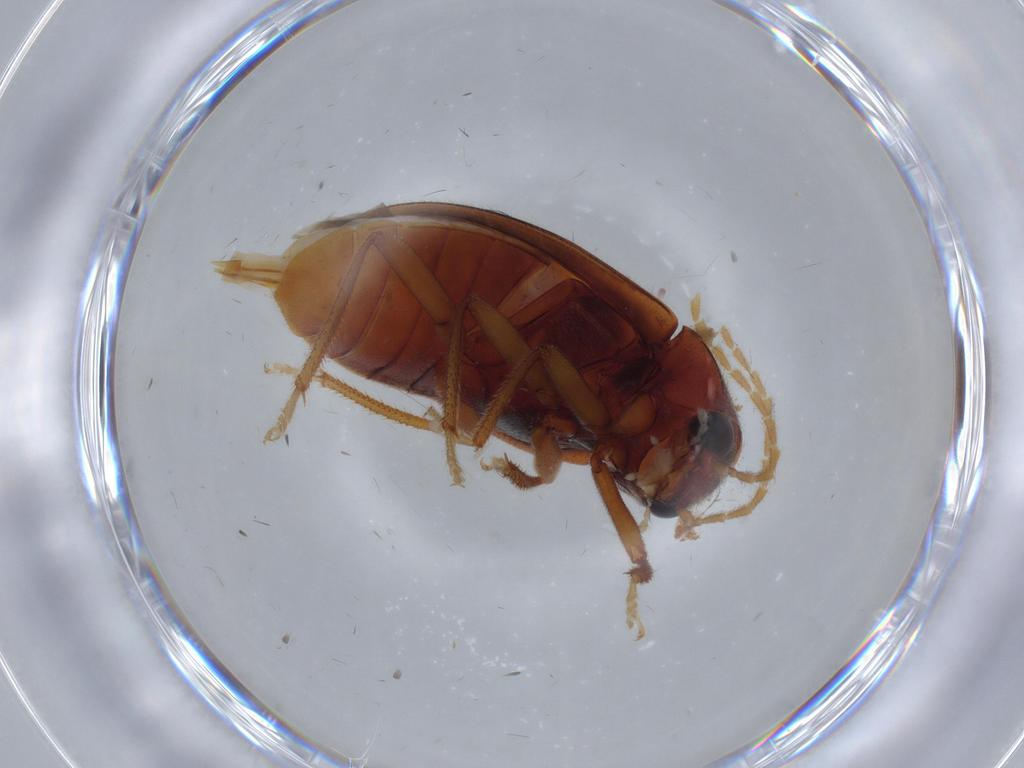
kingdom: Animalia
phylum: Arthropoda
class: Insecta
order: Coleoptera
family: Ptilodactylidae
